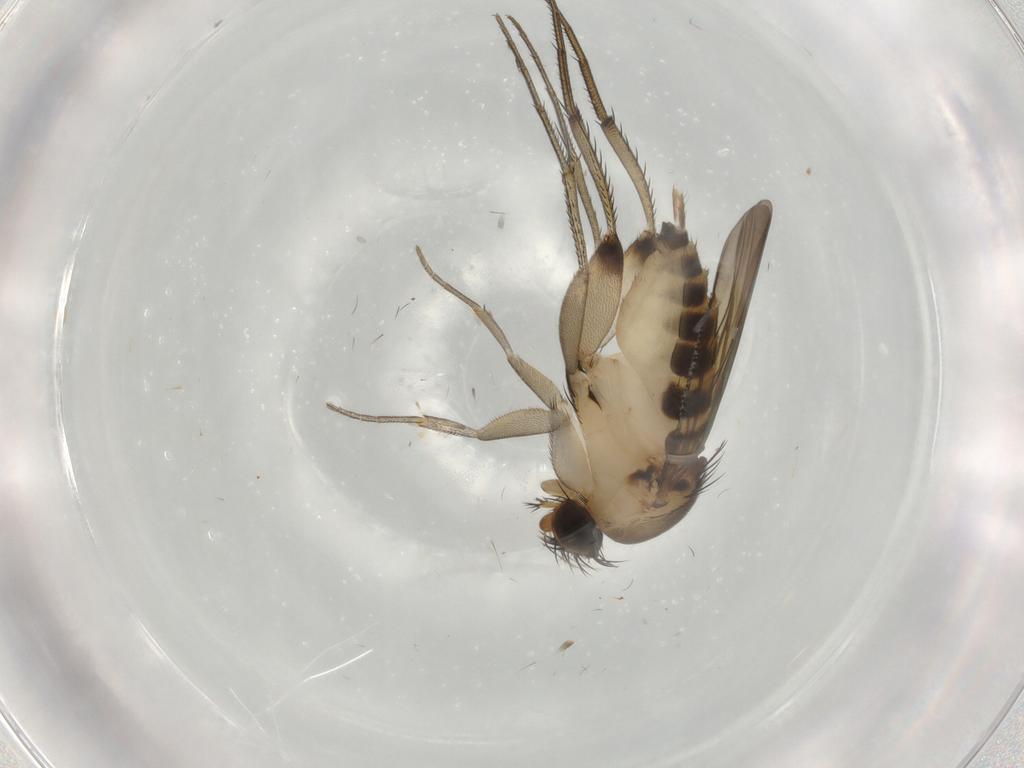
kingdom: Animalia
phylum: Arthropoda
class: Insecta
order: Diptera
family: Phoridae
